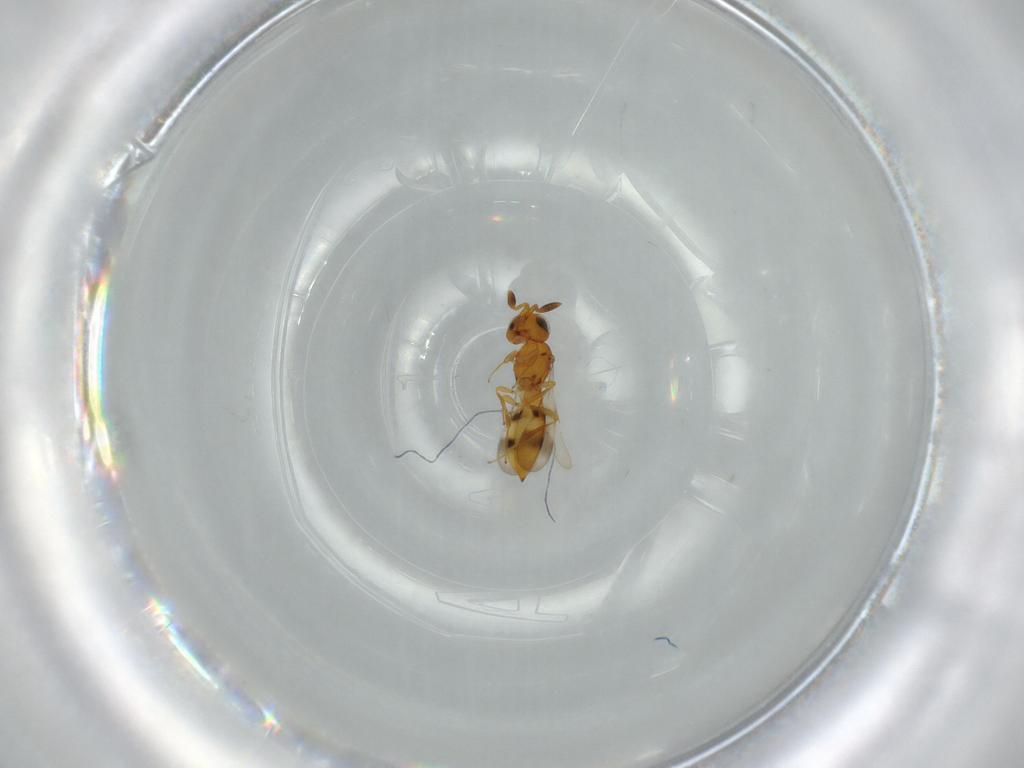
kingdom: Animalia
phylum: Arthropoda
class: Insecta
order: Hymenoptera
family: Scelionidae
